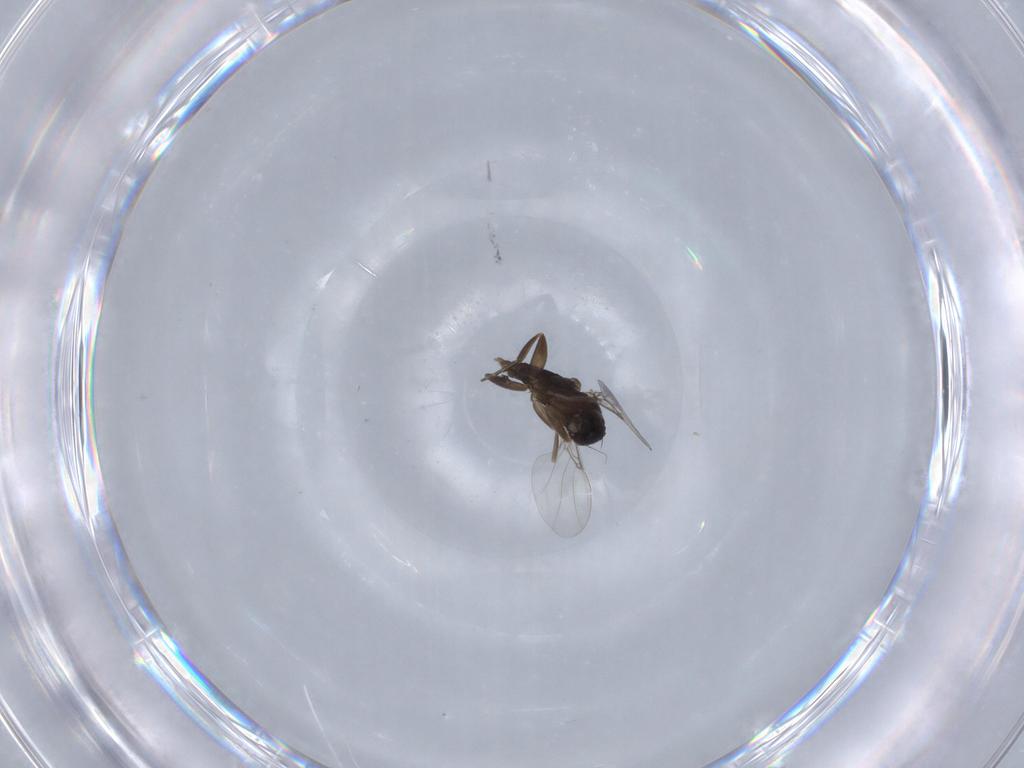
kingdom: Animalia
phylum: Arthropoda
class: Insecta
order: Diptera
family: Phoridae
